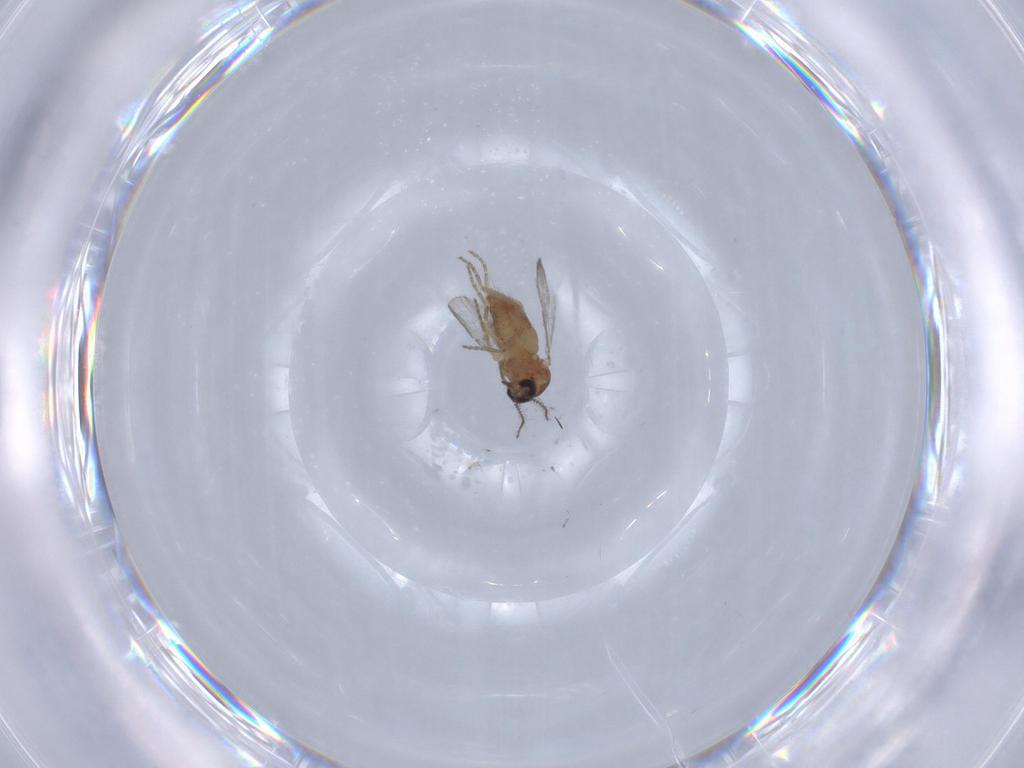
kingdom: Animalia
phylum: Arthropoda
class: Insecta
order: Diptera
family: Ceratopogonidae
